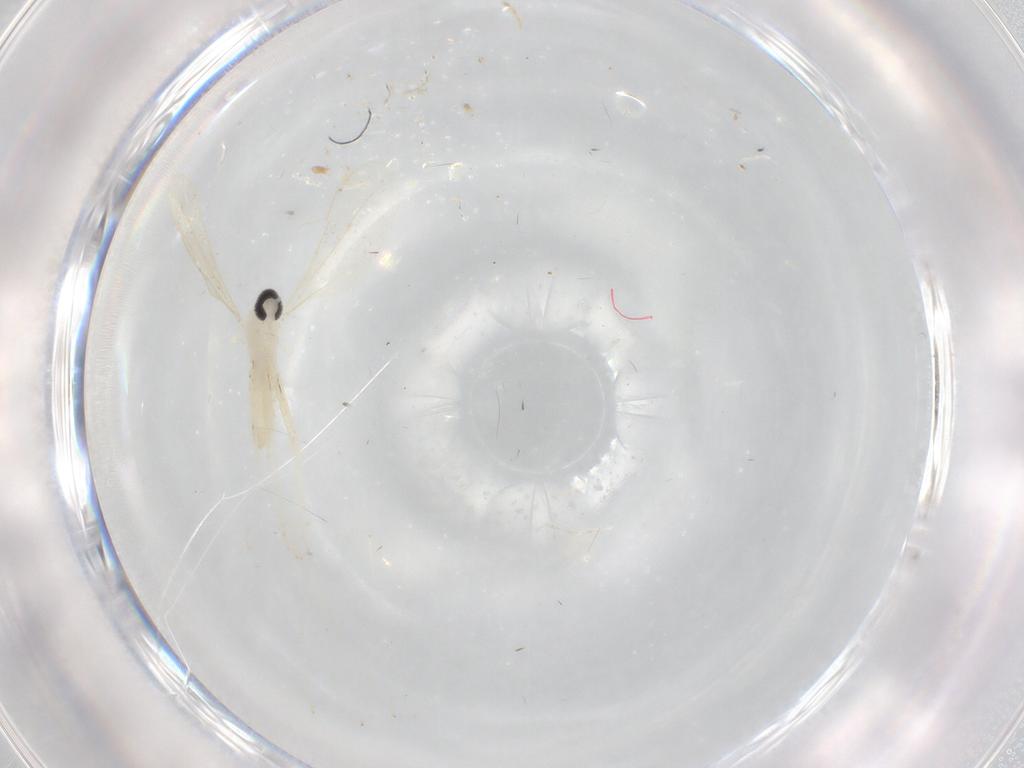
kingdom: Animalia
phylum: Arthropoda
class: Insecta
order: Diptera
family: Cecidomyiidae
